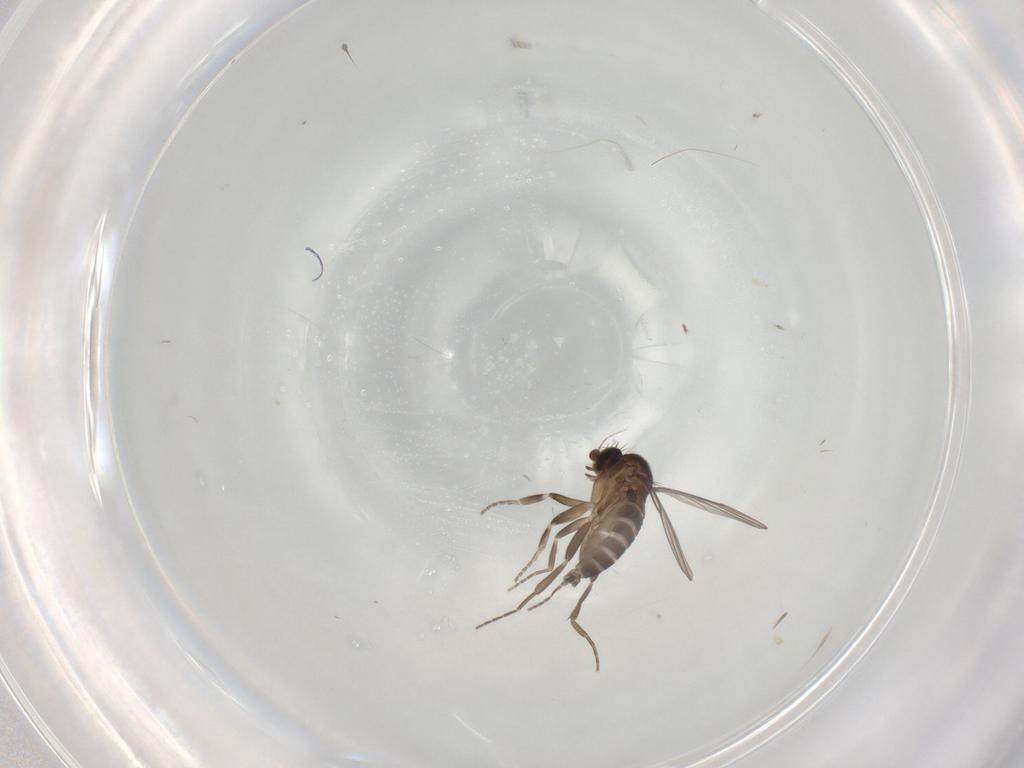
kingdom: Animalia
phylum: Arthropoda
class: Insecta
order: Diptera
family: Phoridae
